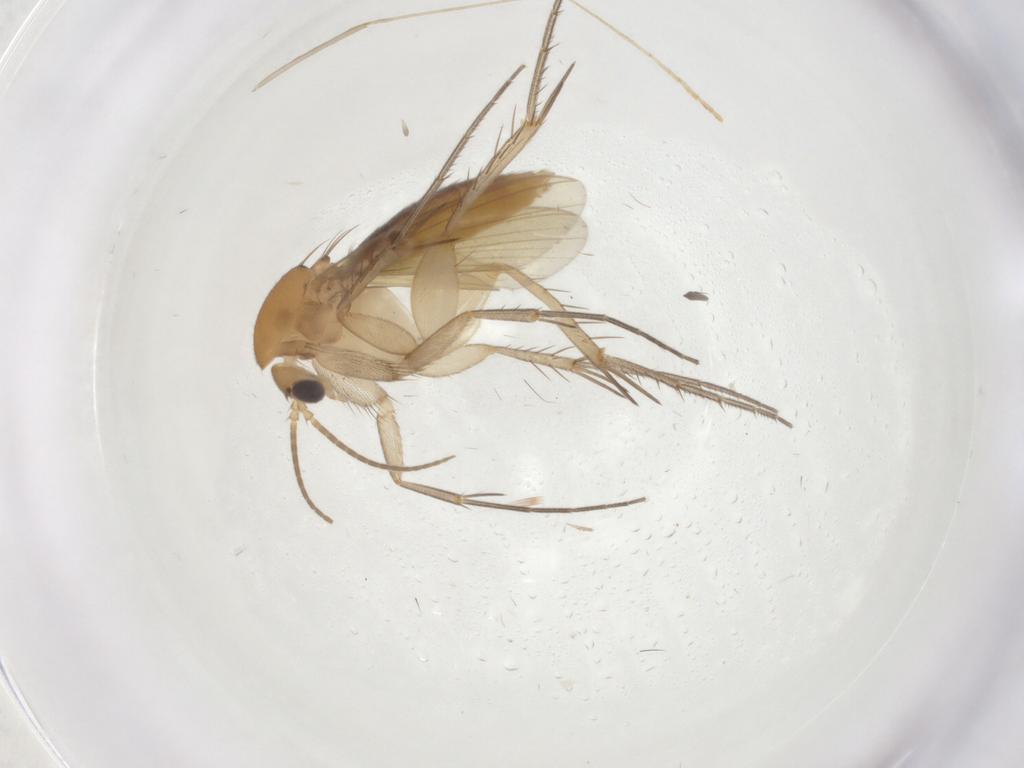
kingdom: Animalia
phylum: Arthropoda
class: Insecta
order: Diptera
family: Mycetophilidae
